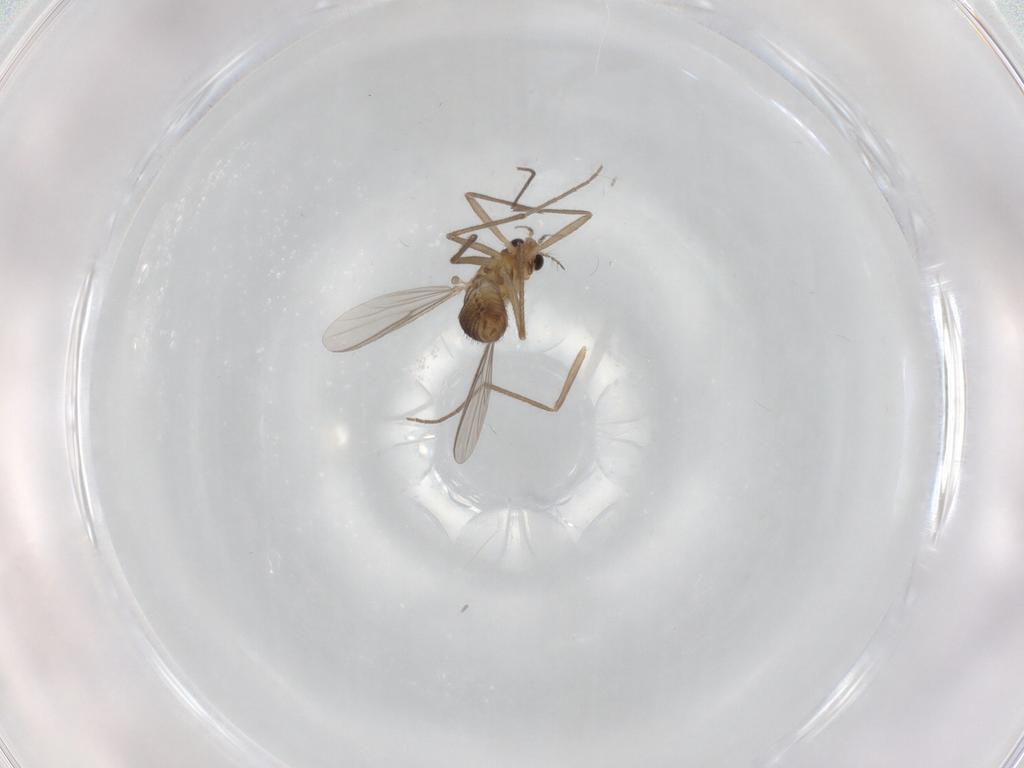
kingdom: Animalia
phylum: Arthropoda
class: Insecta
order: Diptera
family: Chironomidae
